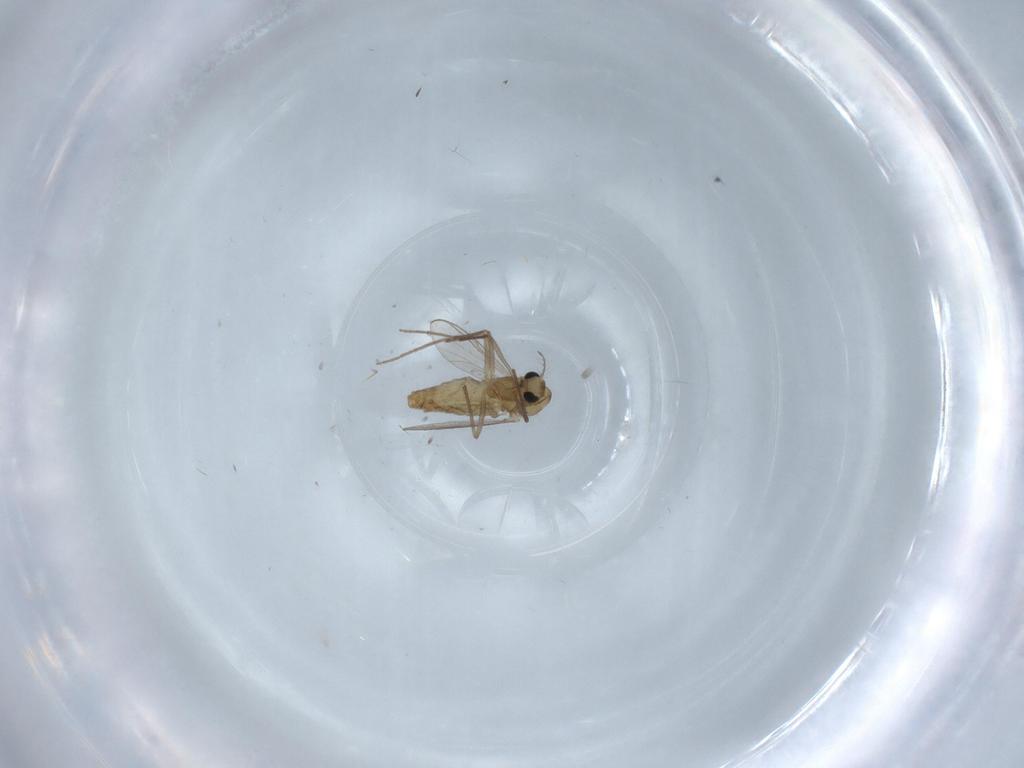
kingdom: Animalia
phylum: Arthropoda
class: Insecta
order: Diptera
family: Chironomidae
